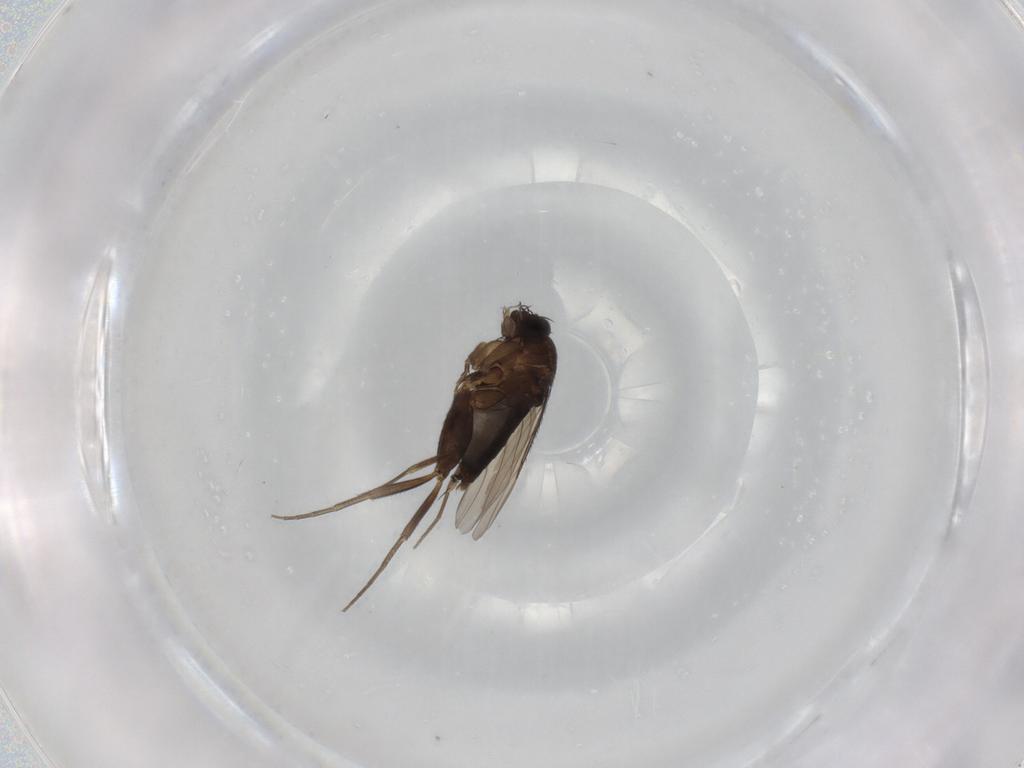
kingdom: Animalia
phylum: Arthropoda
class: Insecta
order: Diptera
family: Phoridae
